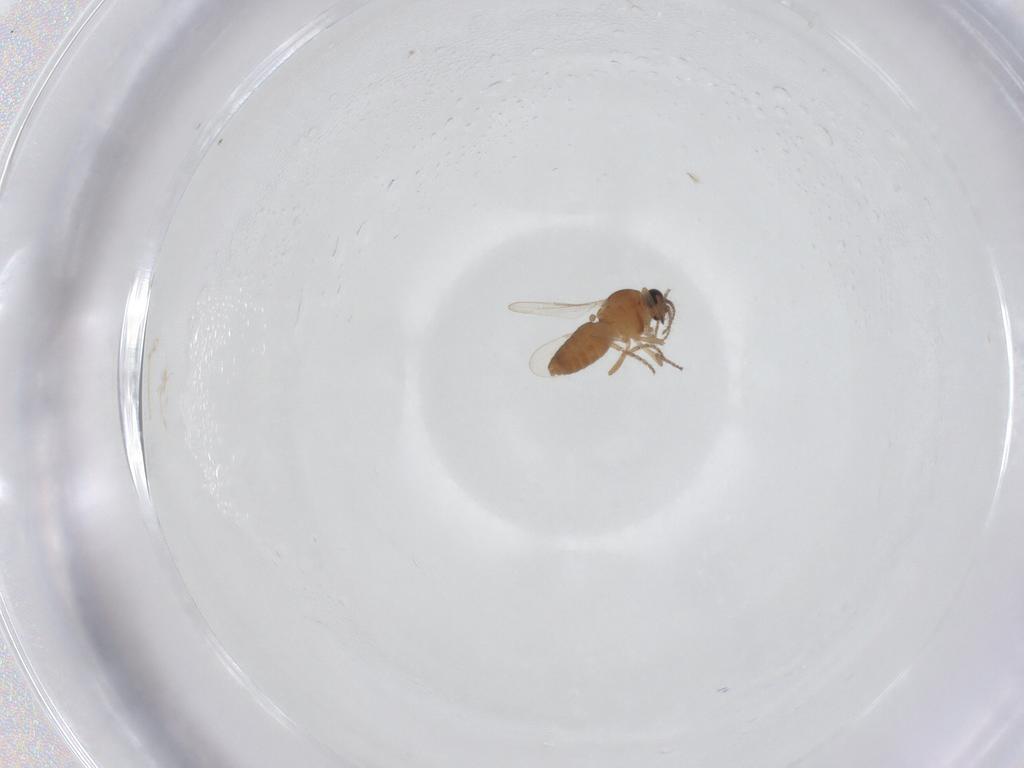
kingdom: Animalia
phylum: Arthropoda
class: Insecta
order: Diptera
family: Ceratopogonidae
